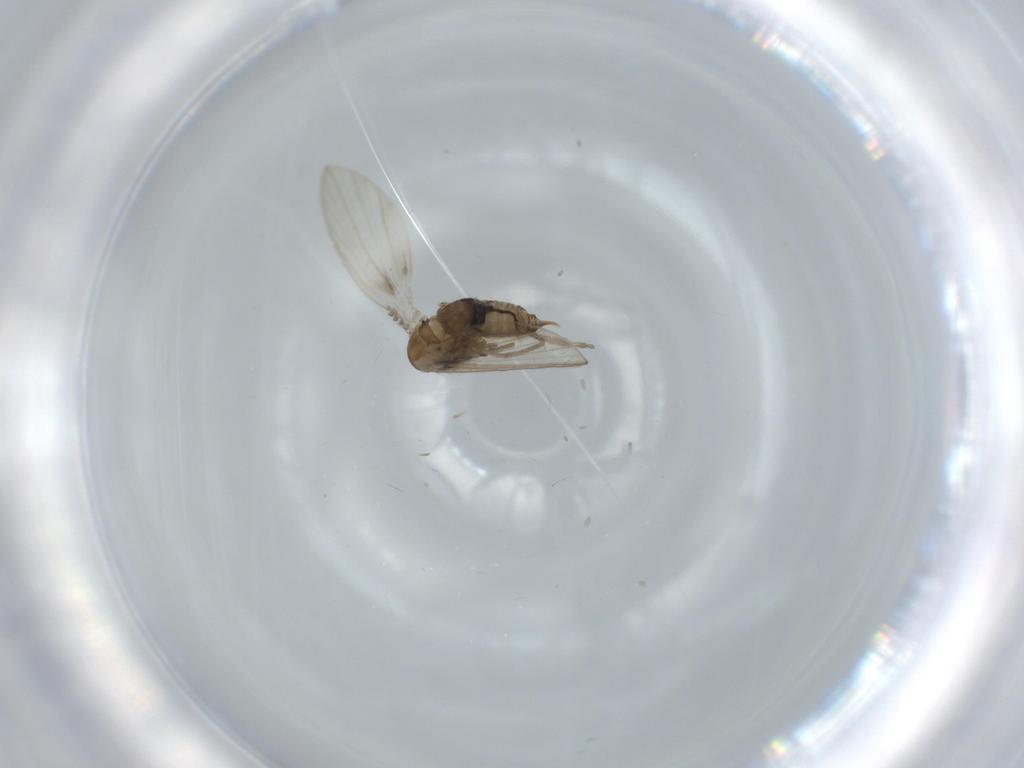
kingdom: Animalia
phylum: Arthropoda
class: Insecta
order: Diptera
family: Psychodidae
